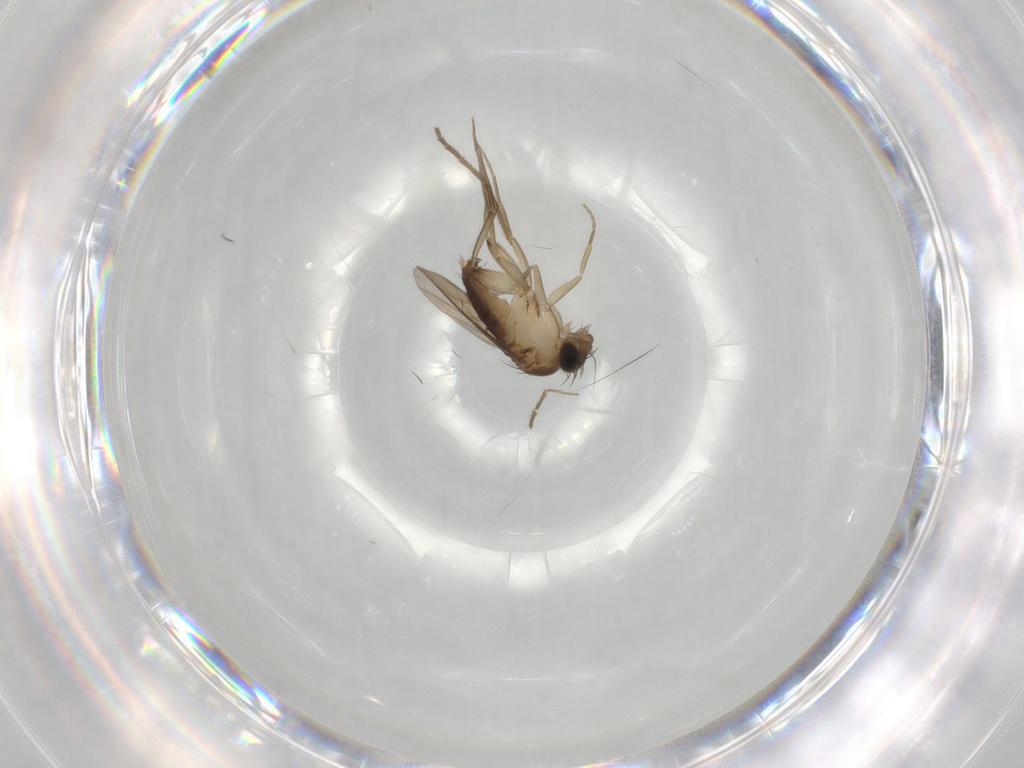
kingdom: Animalia
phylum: Arthropoda
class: Insecta
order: Diptera
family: Phoridae
